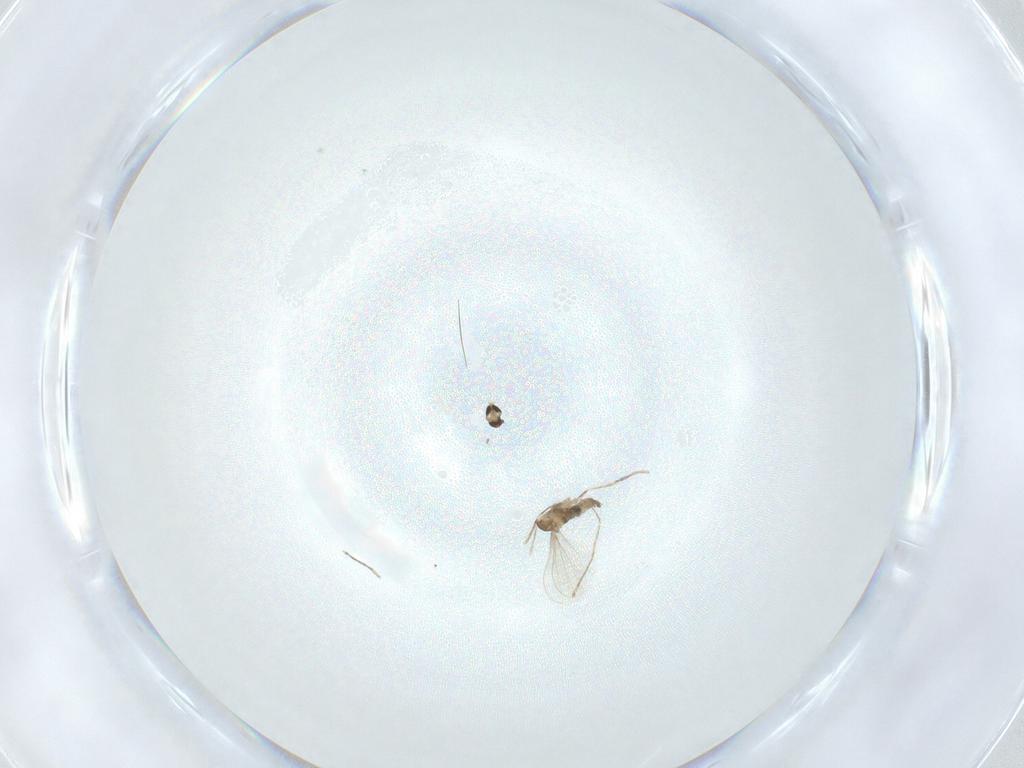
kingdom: Animalia
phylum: Arthropoda
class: Insecta
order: Diptera
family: Cecidomyiidae
